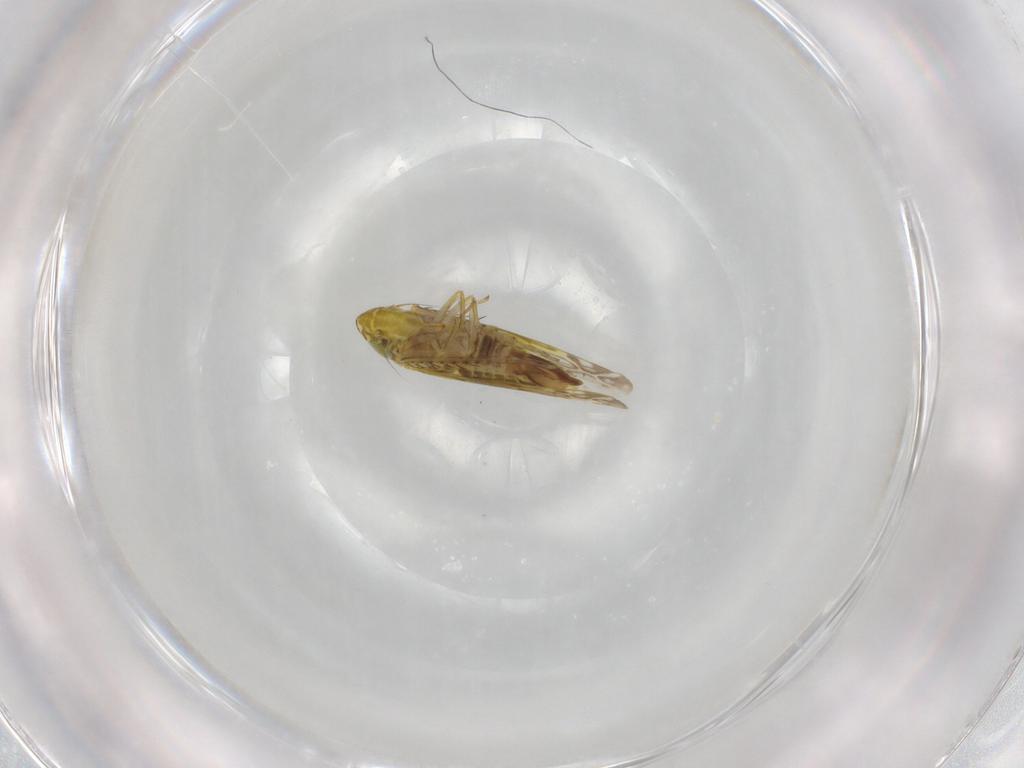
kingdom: Animalia
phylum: Arthropoda
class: Insecta
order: Hemiptera
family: Cicadellidae
